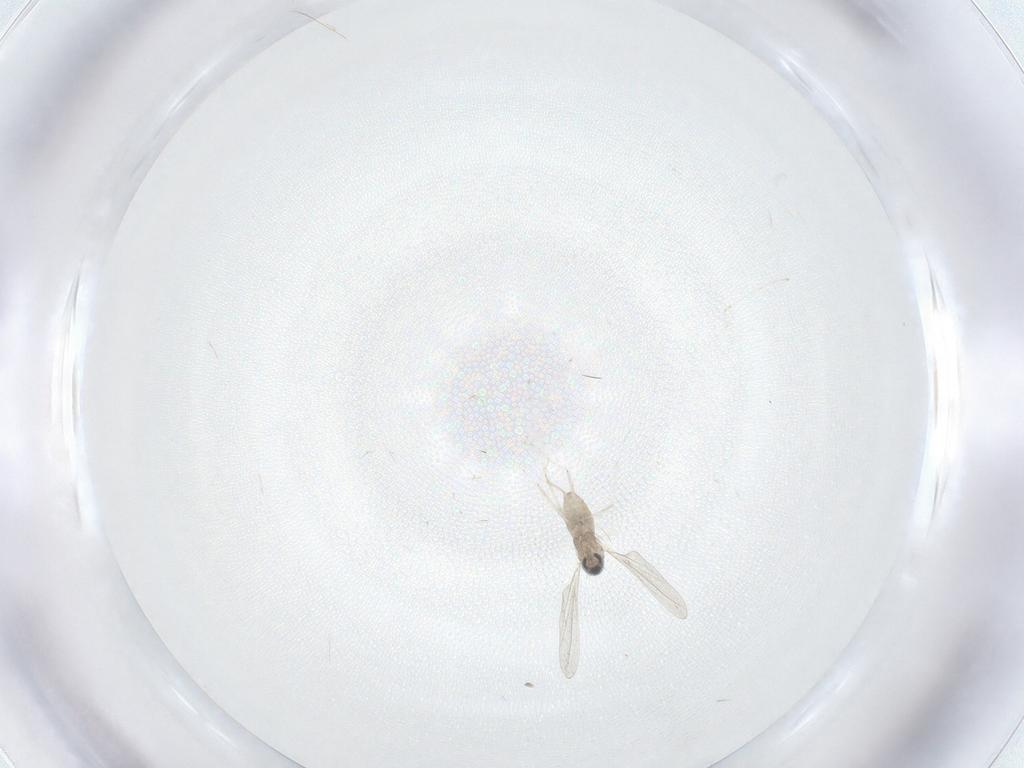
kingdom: Animalia
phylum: Arthropoda
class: Insecta
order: Diptera
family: Cecidomyiidae
